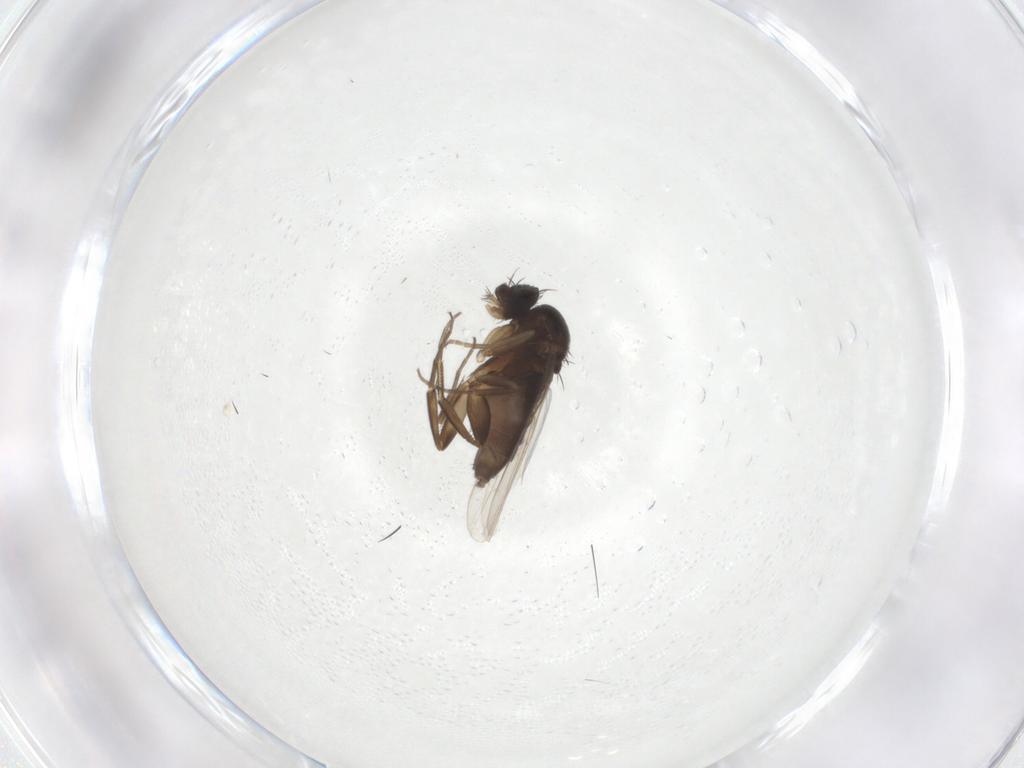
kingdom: Animalia
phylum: Arthropoda
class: Insecta
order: Diptera
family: Phoridae
